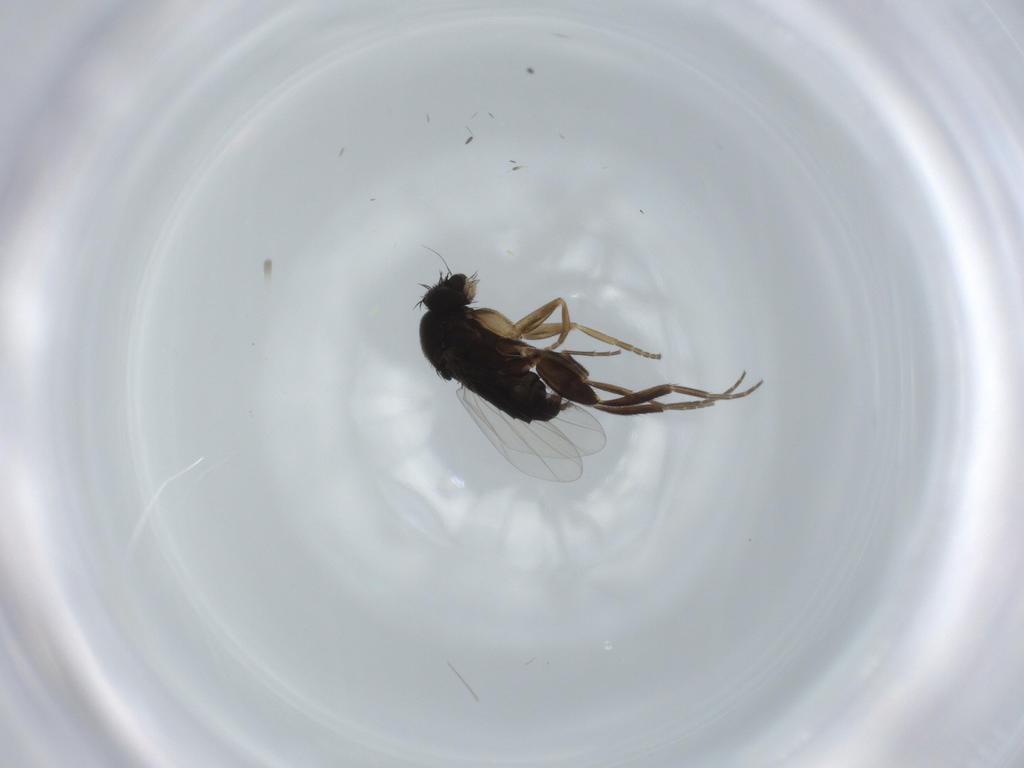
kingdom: Animalia
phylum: Arthropoda
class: Insecta
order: Diptera
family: Phoridae
